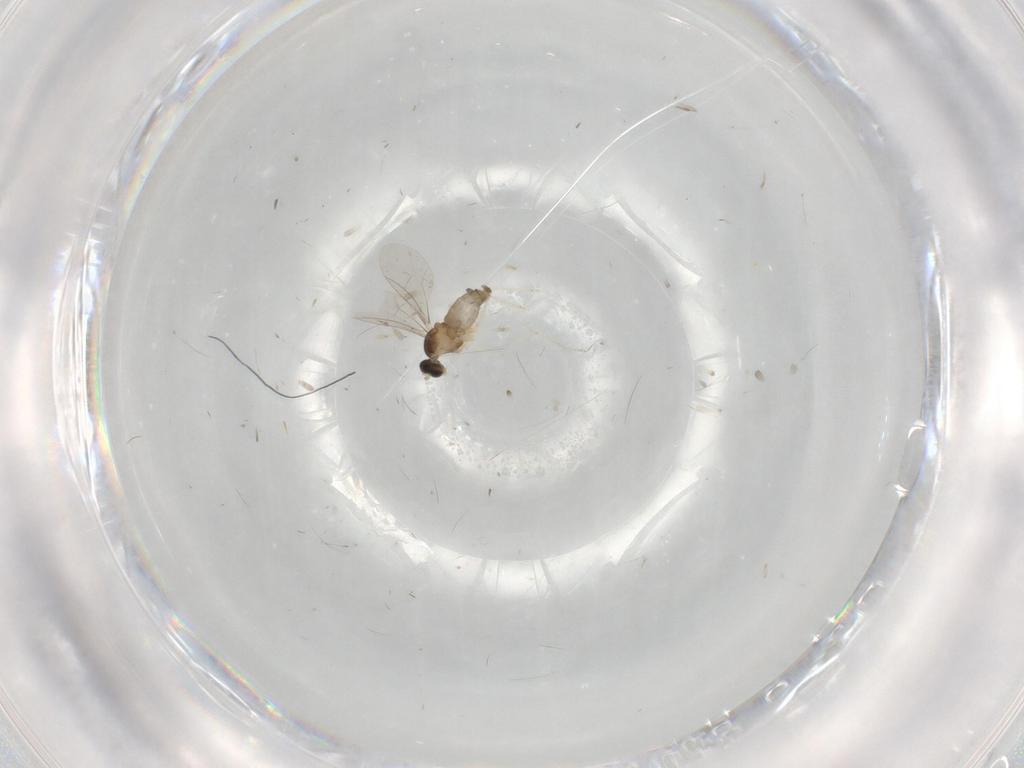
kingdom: Animalia
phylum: Arthropoda
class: Insecta
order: Diptera
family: Cecidomyiidae
